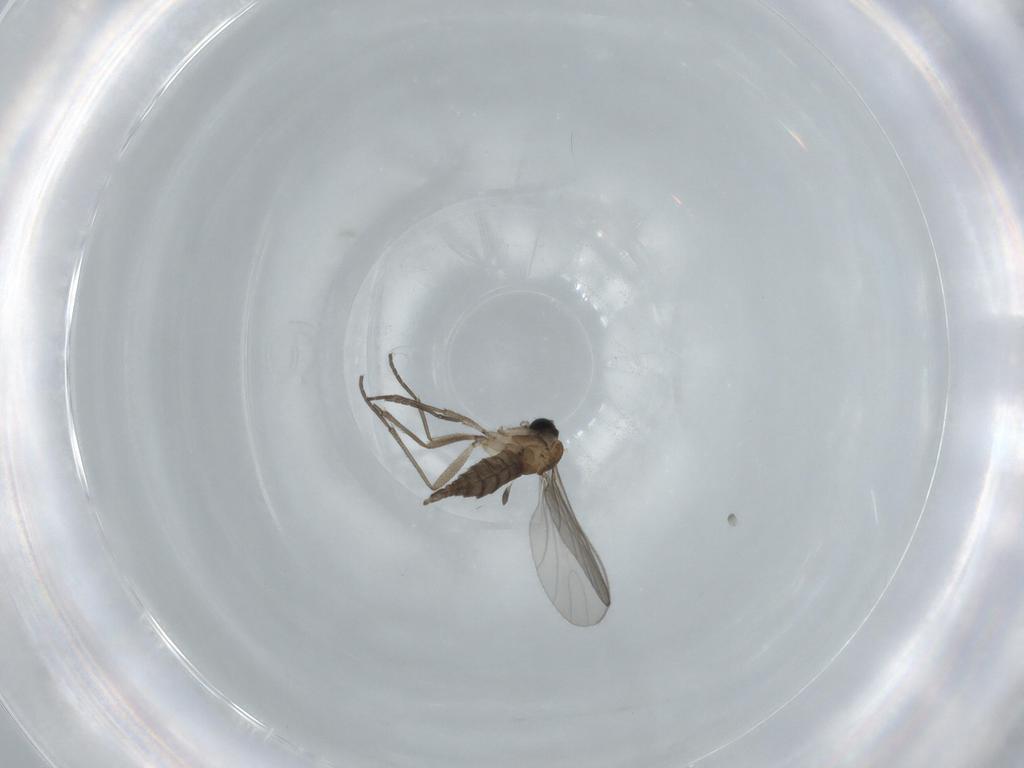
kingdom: Animalia
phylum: Arthropoda
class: Insecta
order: Diptera
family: Sciaridae
